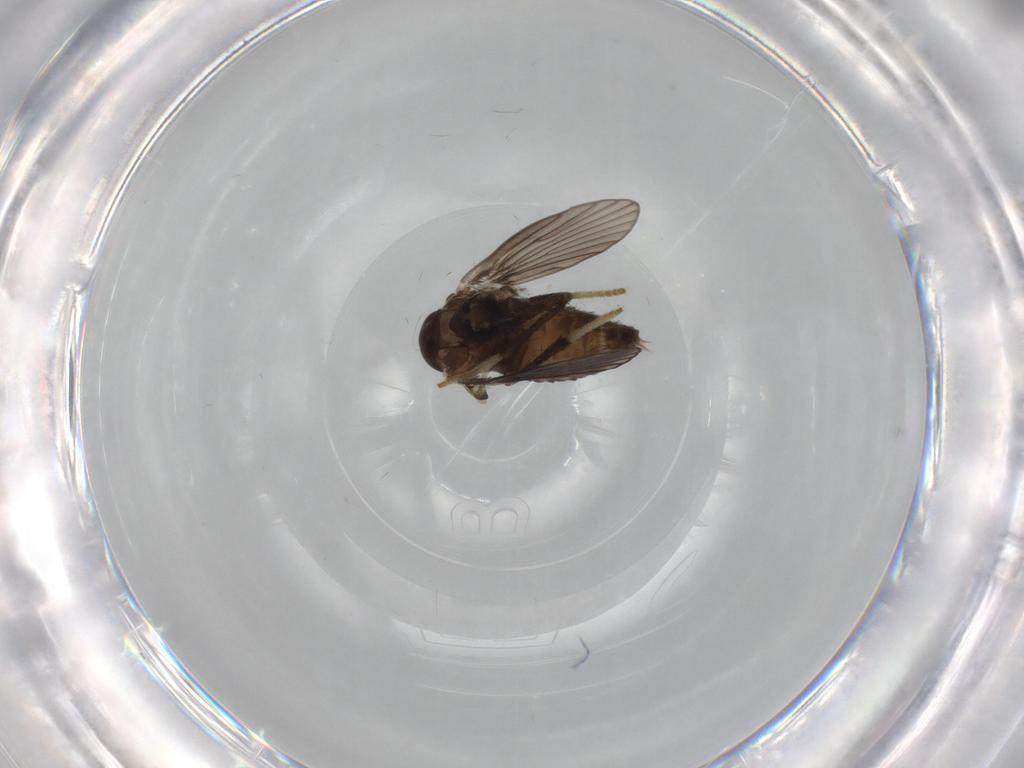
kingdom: Animalia
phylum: Arthropoda
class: Insecta
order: Diptera
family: Psychodidae
